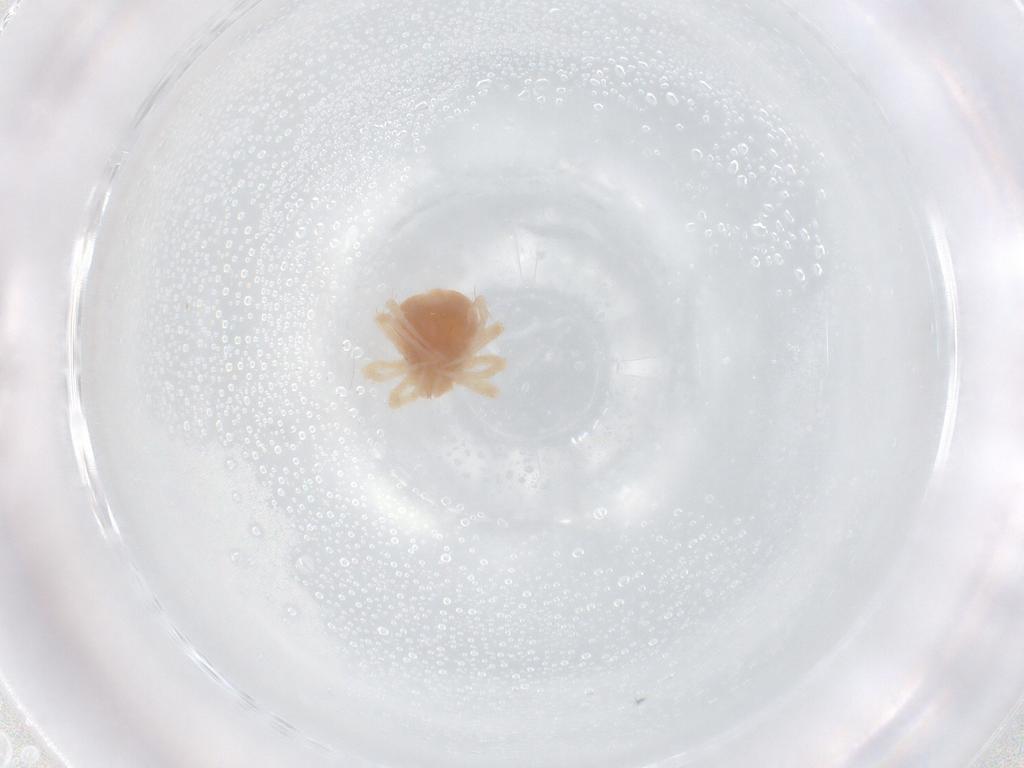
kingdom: Animalia
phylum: Arthropoda
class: Arachnida
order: Trombidiformes
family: Anystidae
